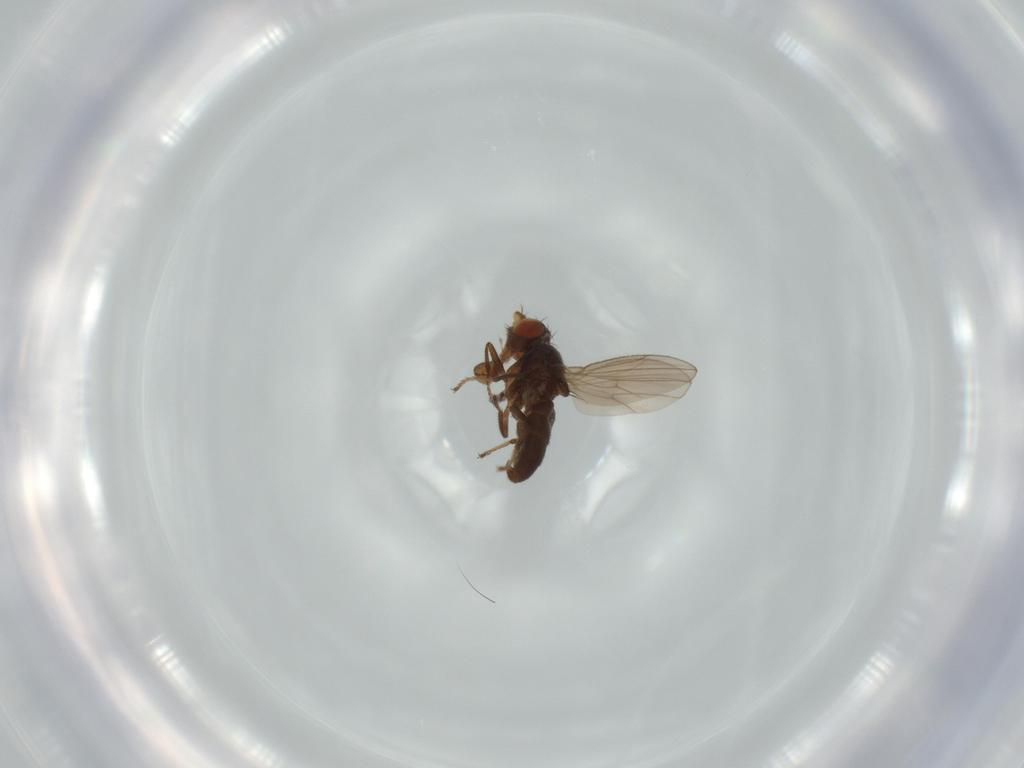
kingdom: Animalia
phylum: Arthropoda
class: Insecta
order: Diptera
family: Ephydridae
